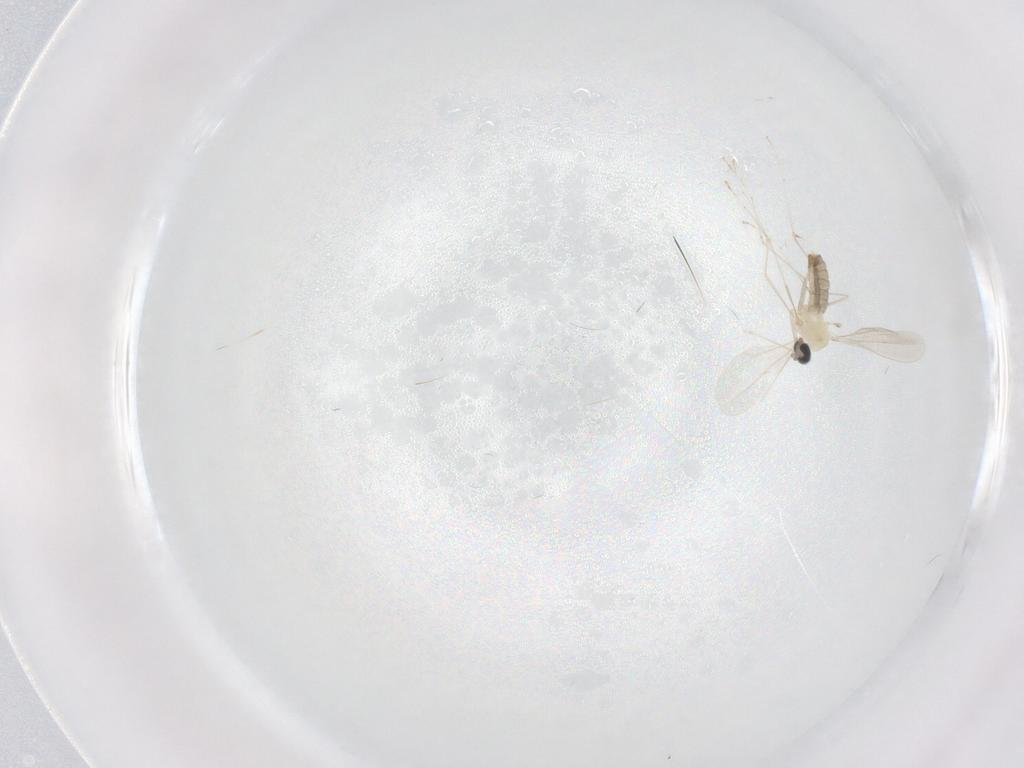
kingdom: Animalia
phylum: Arthropoda
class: Insecta
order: Diptera
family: Cecidomyiidae
